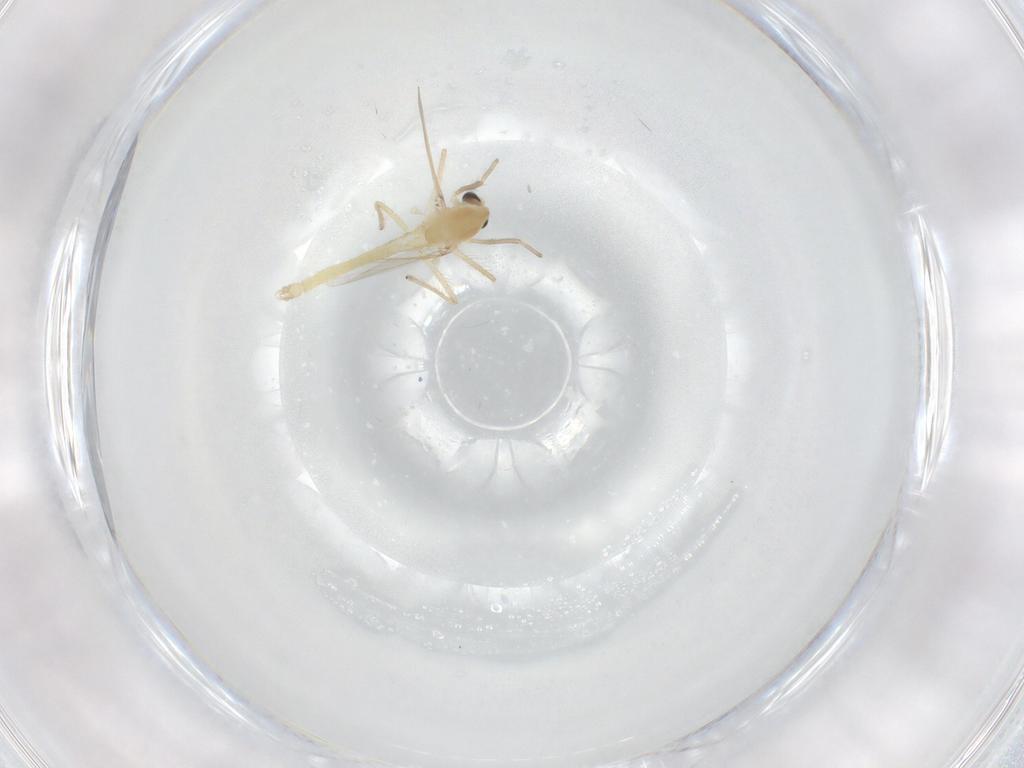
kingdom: Animalia
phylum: Arthropoda
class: Insecta
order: Diptera
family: Chironomidae
